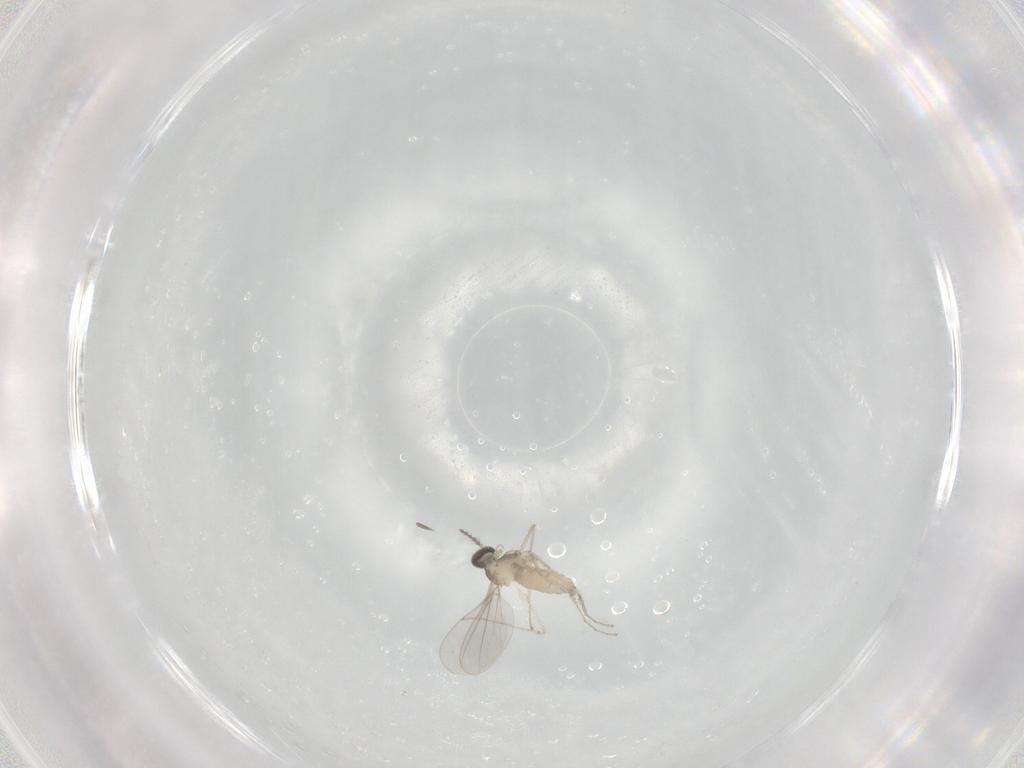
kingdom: Animalia
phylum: Arthropoda
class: Insecta
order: Diptera
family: Cecidomyiidae
